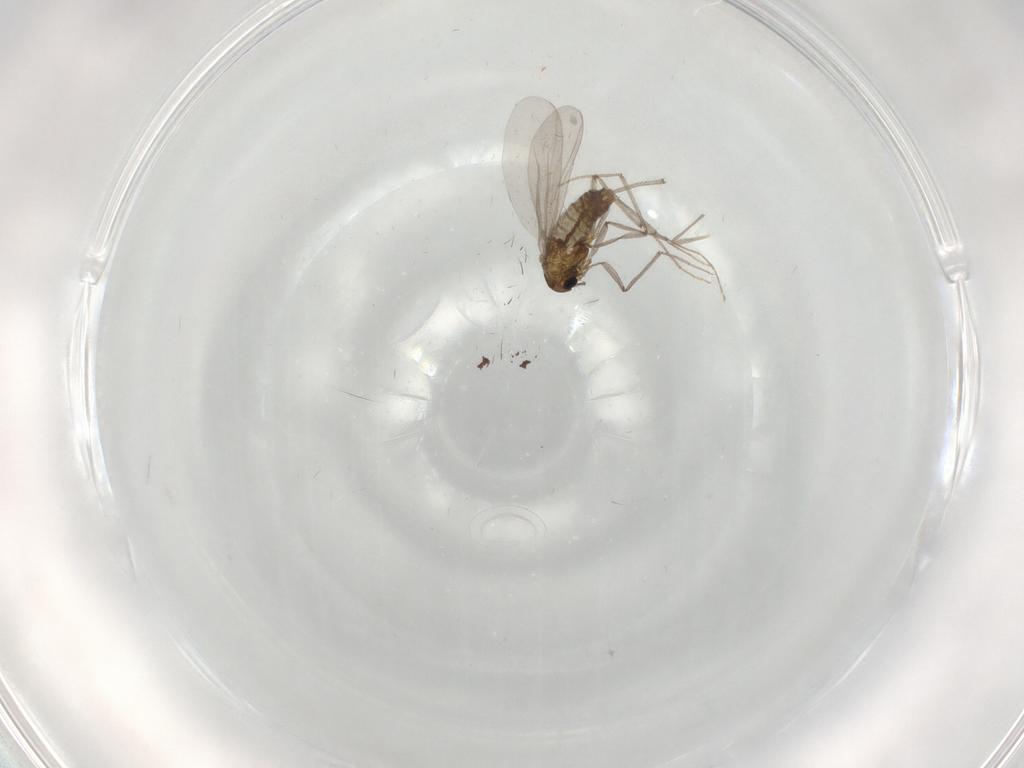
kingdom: Animalia
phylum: Arthropoda
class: Insecta
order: Diptera
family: Chironomidae
